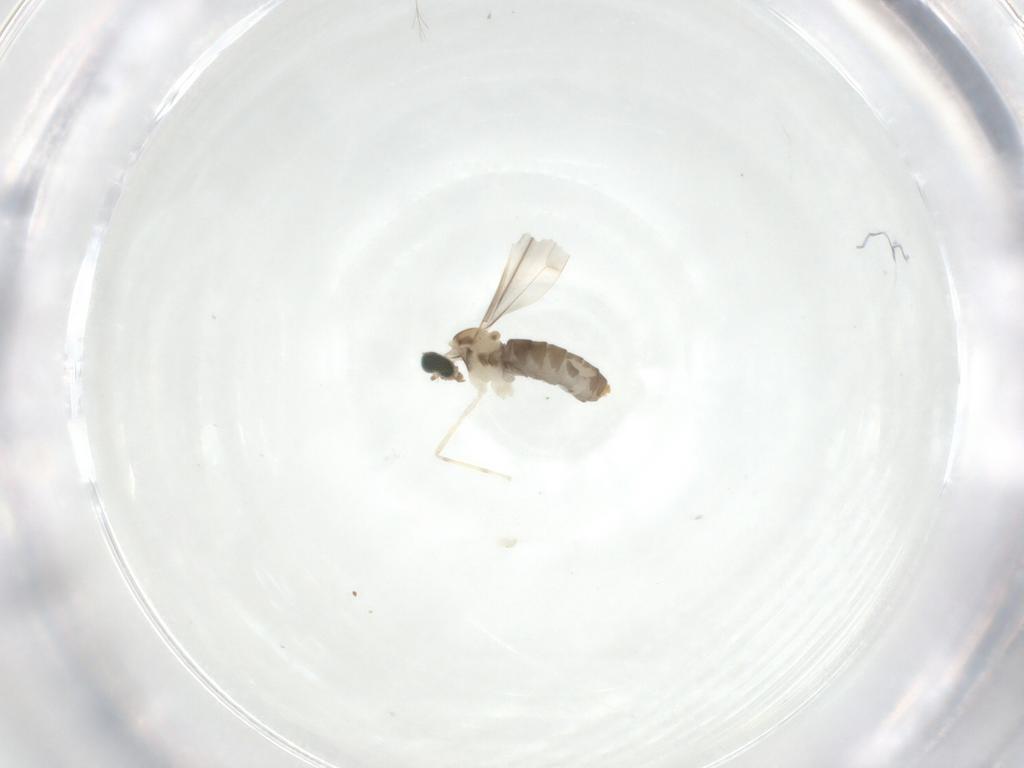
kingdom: Animalia
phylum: Arthropoda
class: Insecta
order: Diptera
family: Cecidomyiidae
